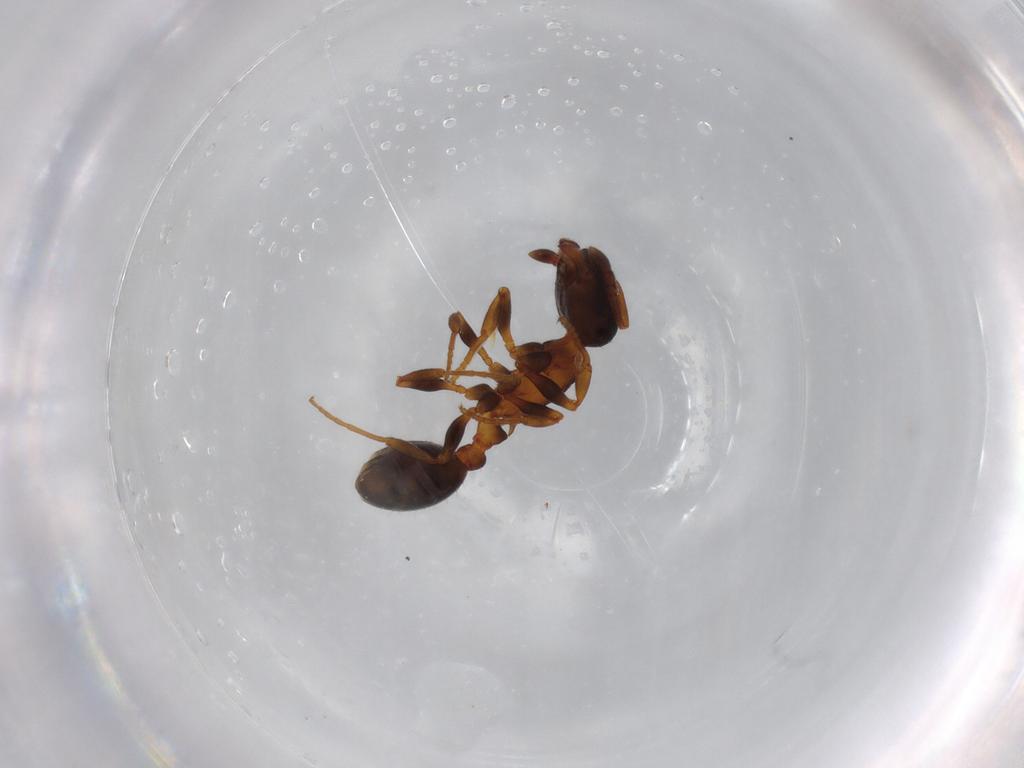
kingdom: Animalia
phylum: Arthropoda
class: Insecta
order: Hymenoptera
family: Formicidae
